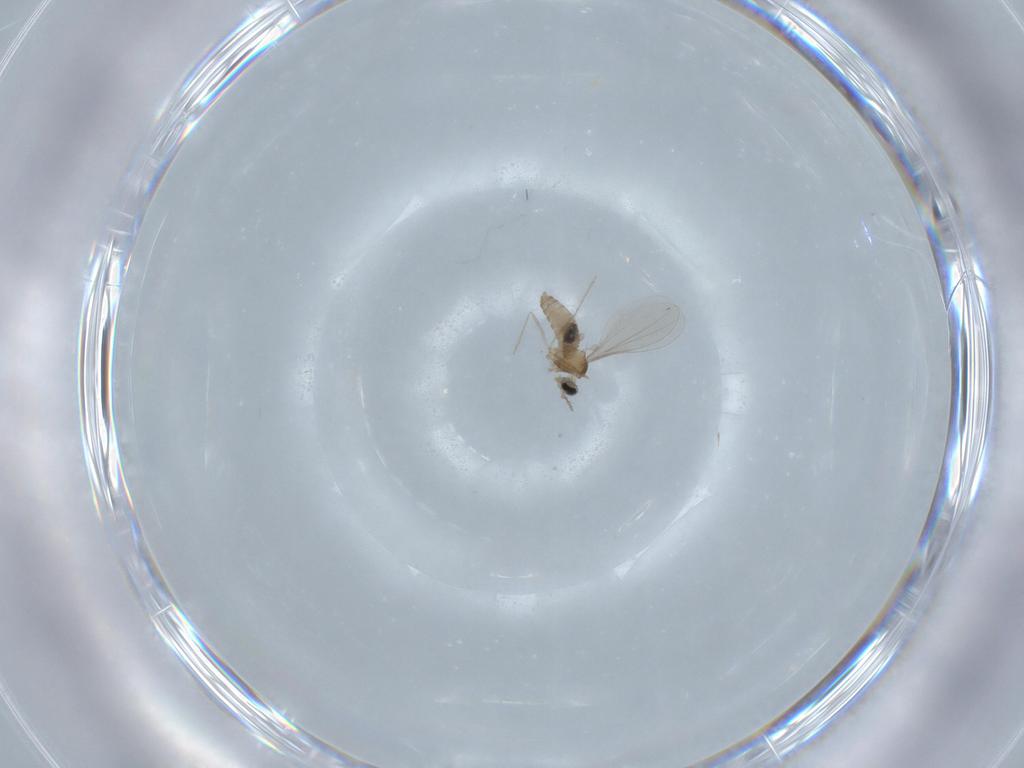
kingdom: Animalia
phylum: Arthropoda
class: Insecta
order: Diptera
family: Cecidomyiidae
